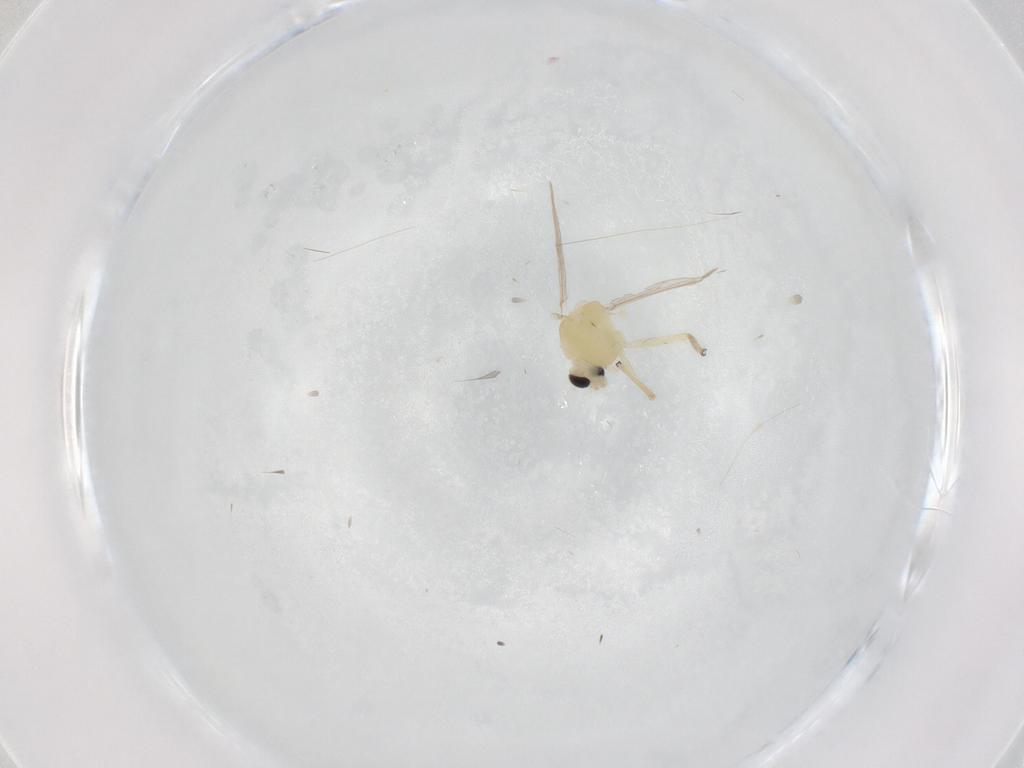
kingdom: Animalia
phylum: Arthropoda
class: Insecta
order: Diptera
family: Chironomidae
